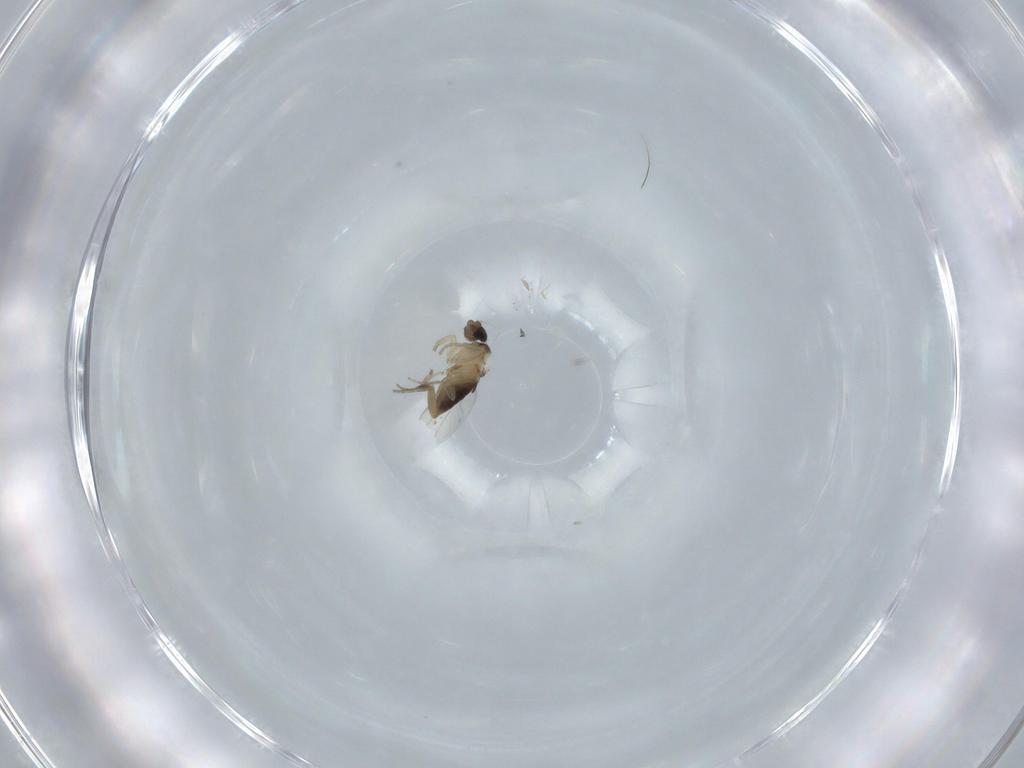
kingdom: Animalia
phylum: Arthropoda
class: Insecta
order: Diptera
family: Phoridae
